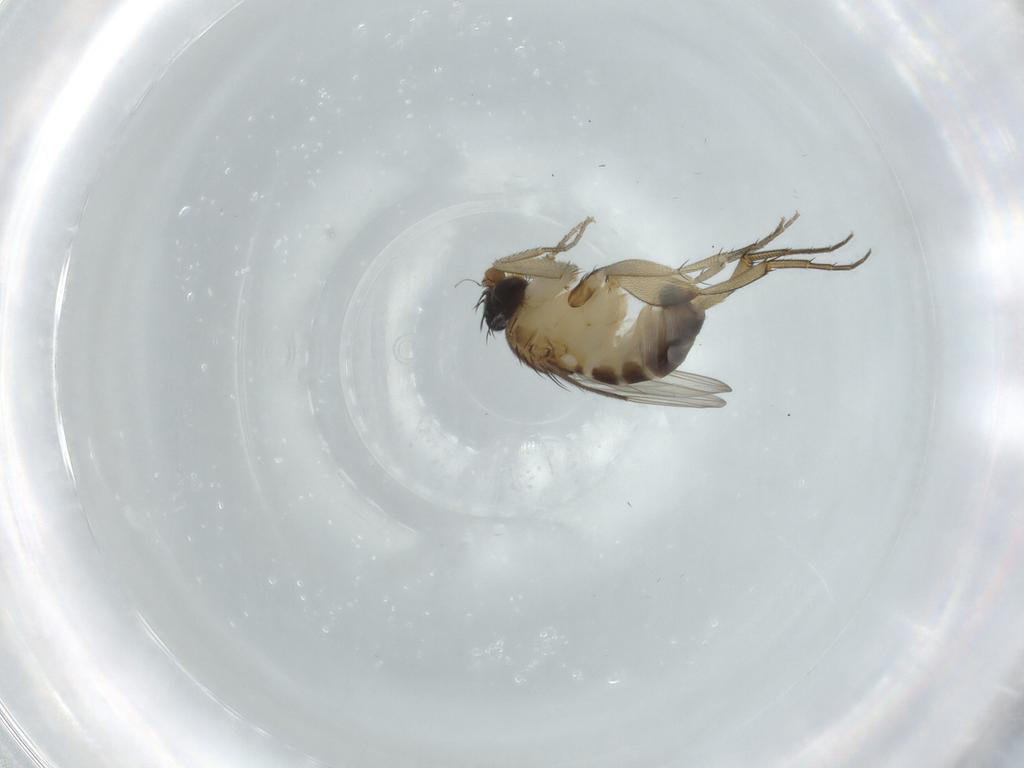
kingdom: Animalia
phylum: Arthropoda
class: Insecta
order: Diptera
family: Phoridae
